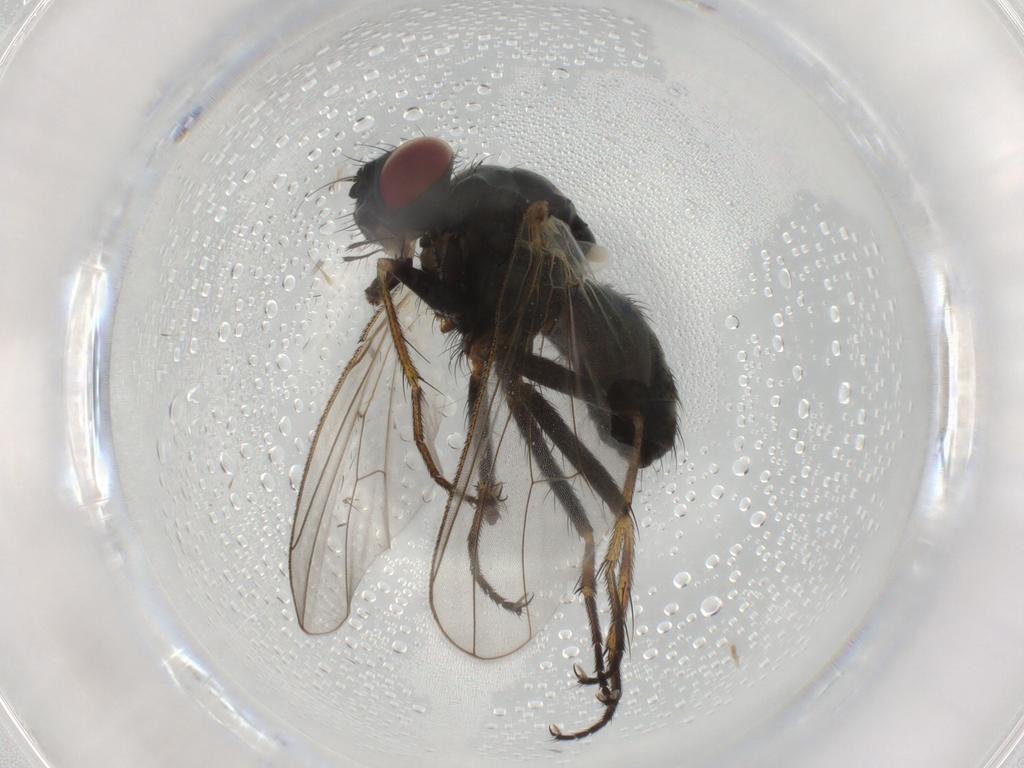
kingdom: Animalia
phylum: Arthropoda
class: Insecta
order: Diptera
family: Muscidae
